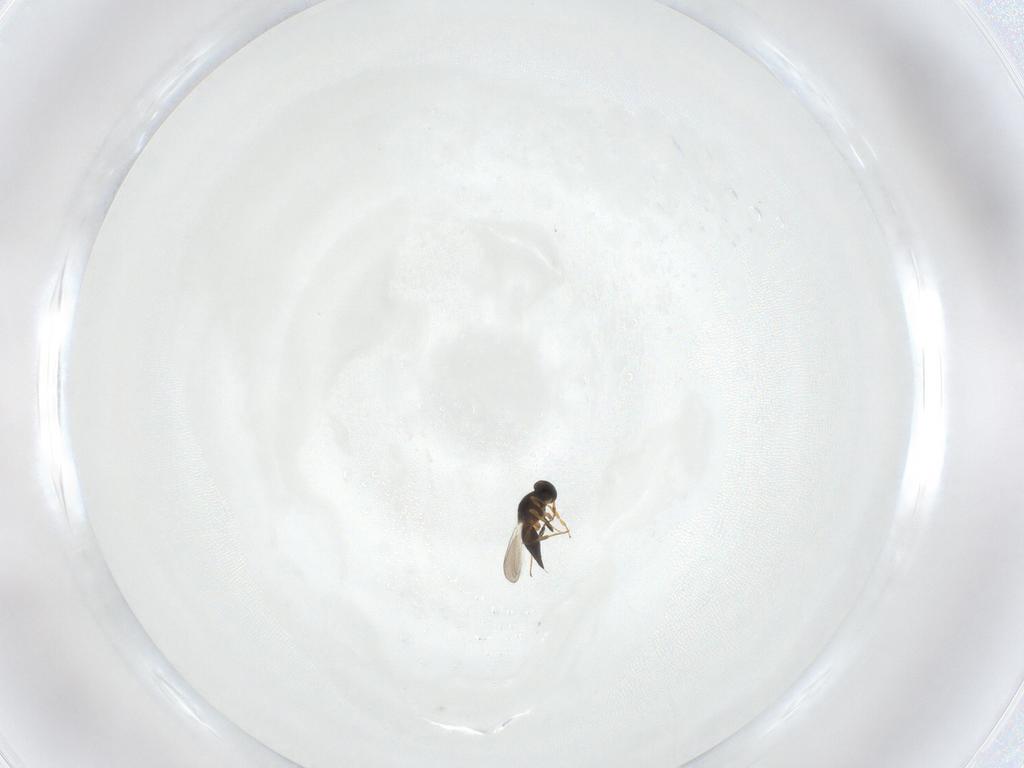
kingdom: Animalia
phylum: Arthropoda
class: Insecta
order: Hymenoptera
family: Platygastridae
